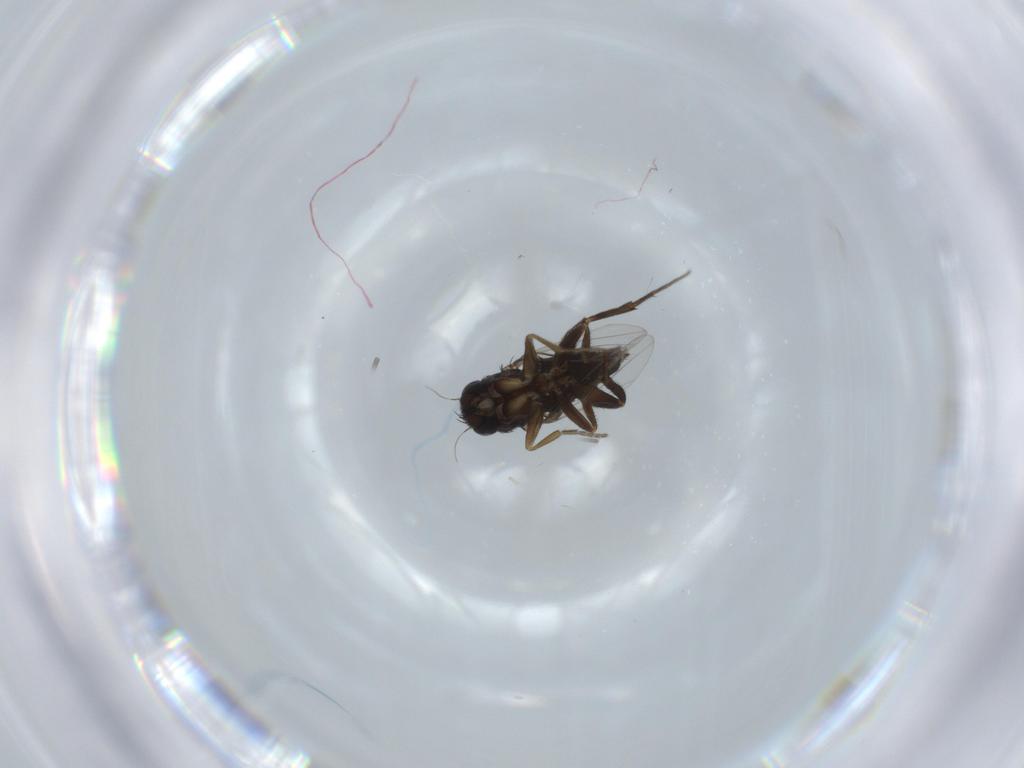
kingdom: Animalia
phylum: Arthropoda
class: Insecta
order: Diptera
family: Phoridae
